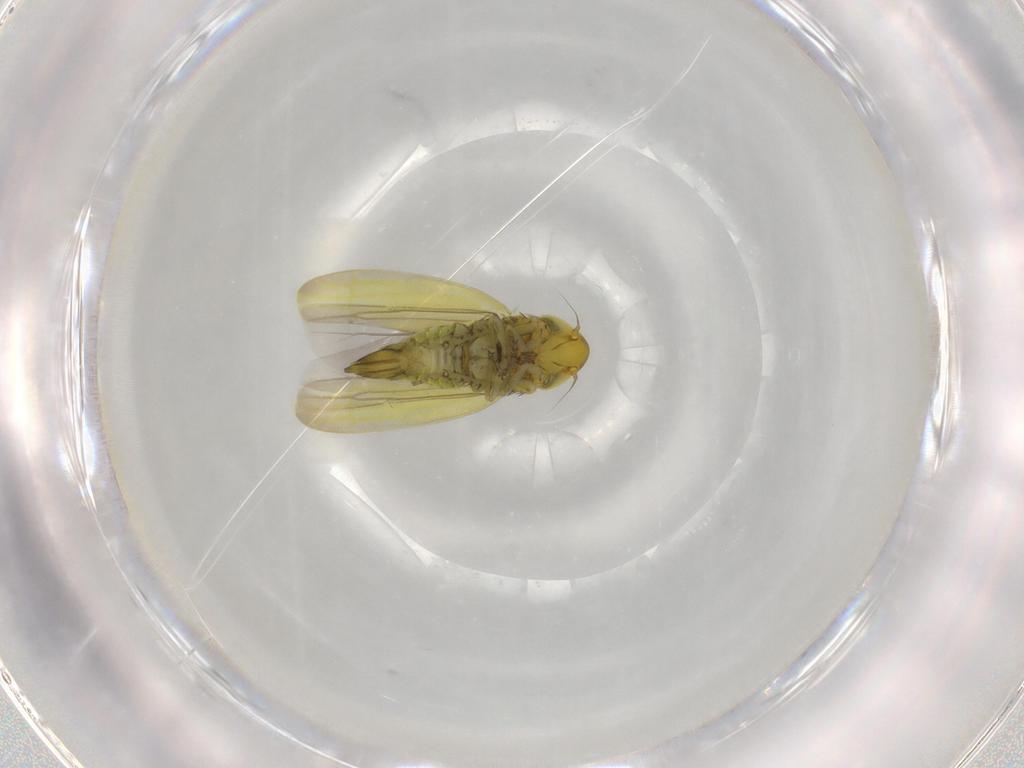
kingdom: Animalia
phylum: Arthropoda
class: Insecta
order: Hemiptera
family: Cicadellidae
